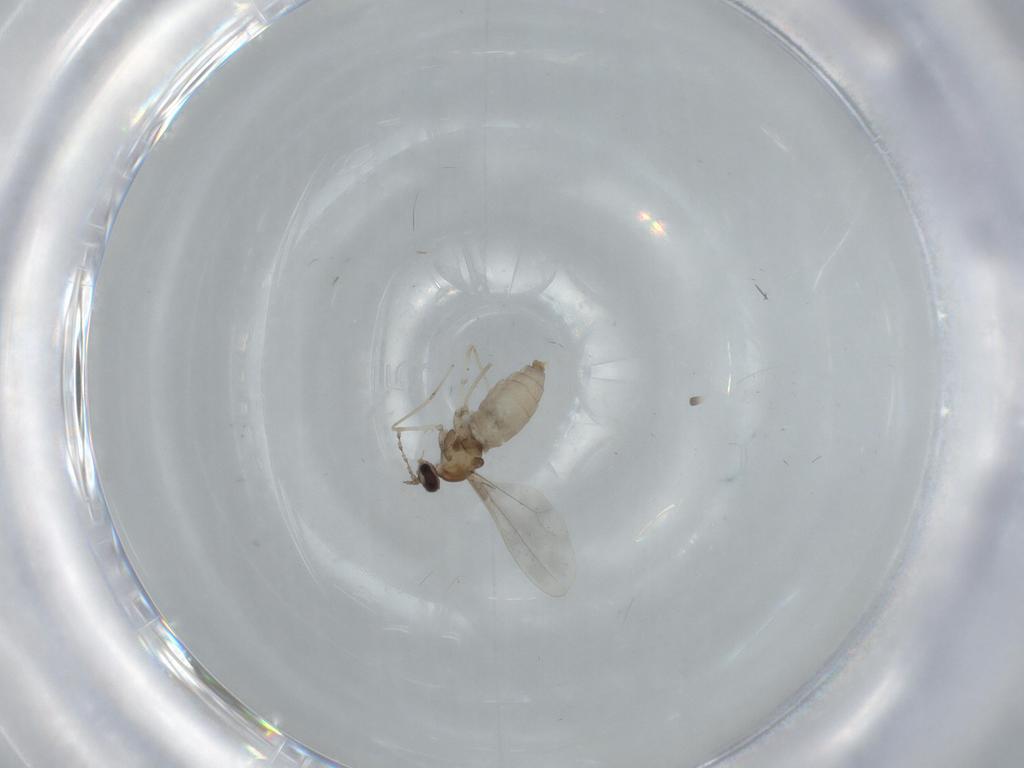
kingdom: Animalia
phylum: Arthropoda
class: Insecta
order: Diptera
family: Cecidomyiidae
